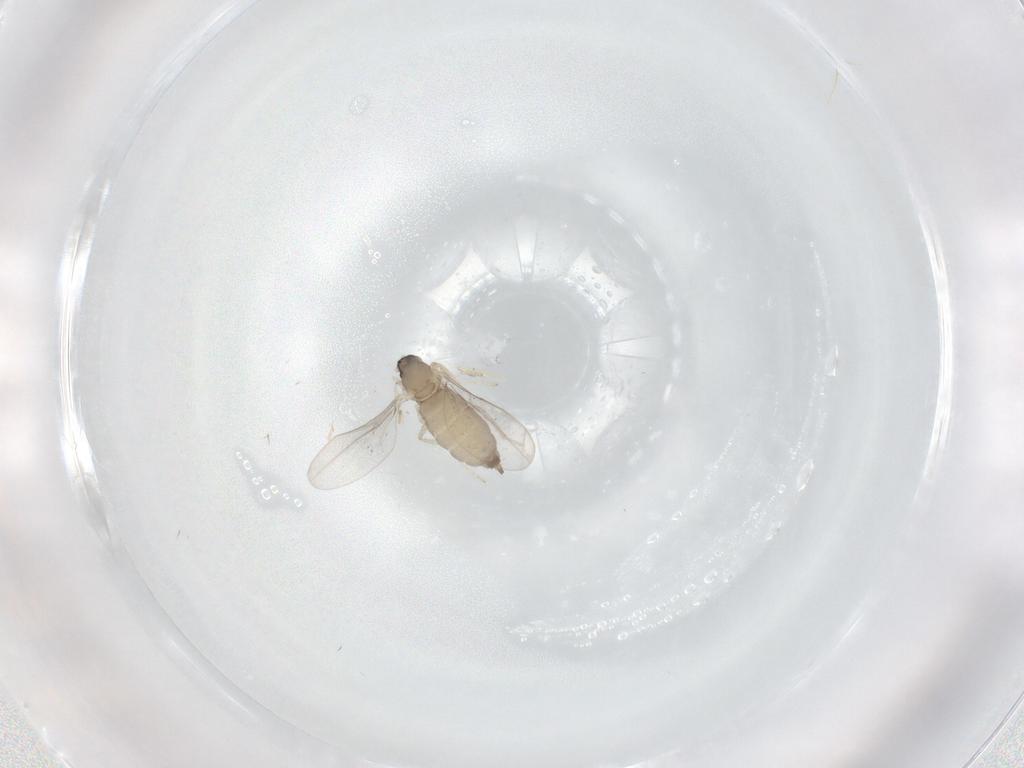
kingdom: Animalia
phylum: Arthropoda
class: Insecta
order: Diptera
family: Cecidomyiidae
